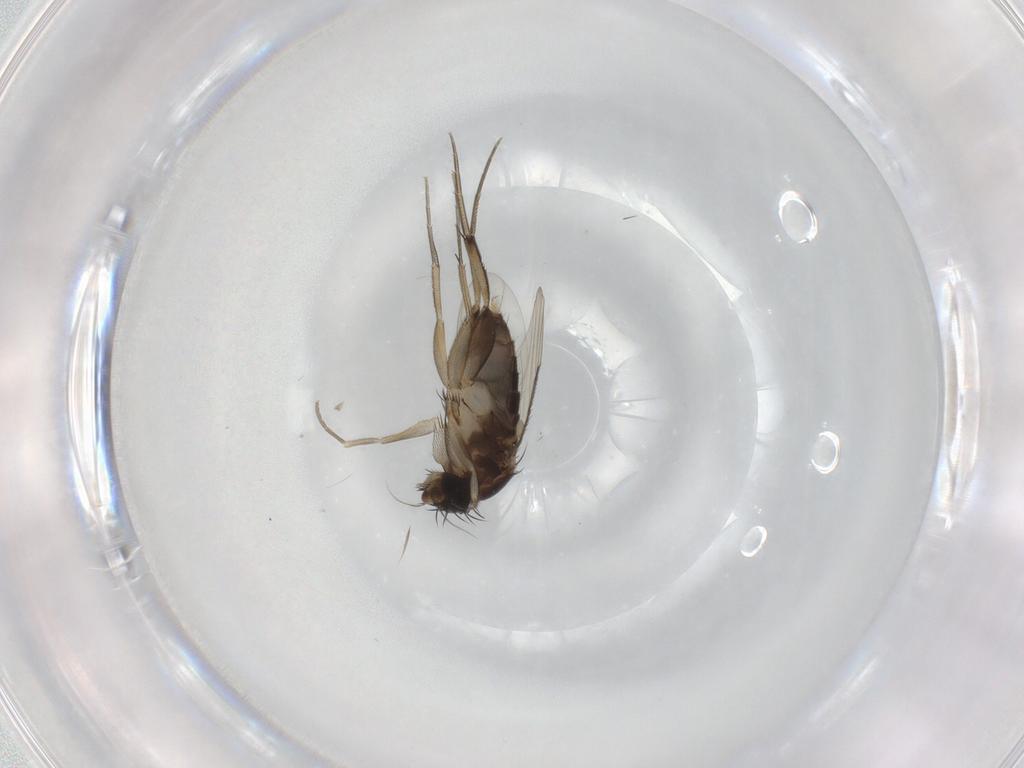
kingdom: Animalia
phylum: Arthropoda
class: Insecta
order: Diptera
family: Phoridae
